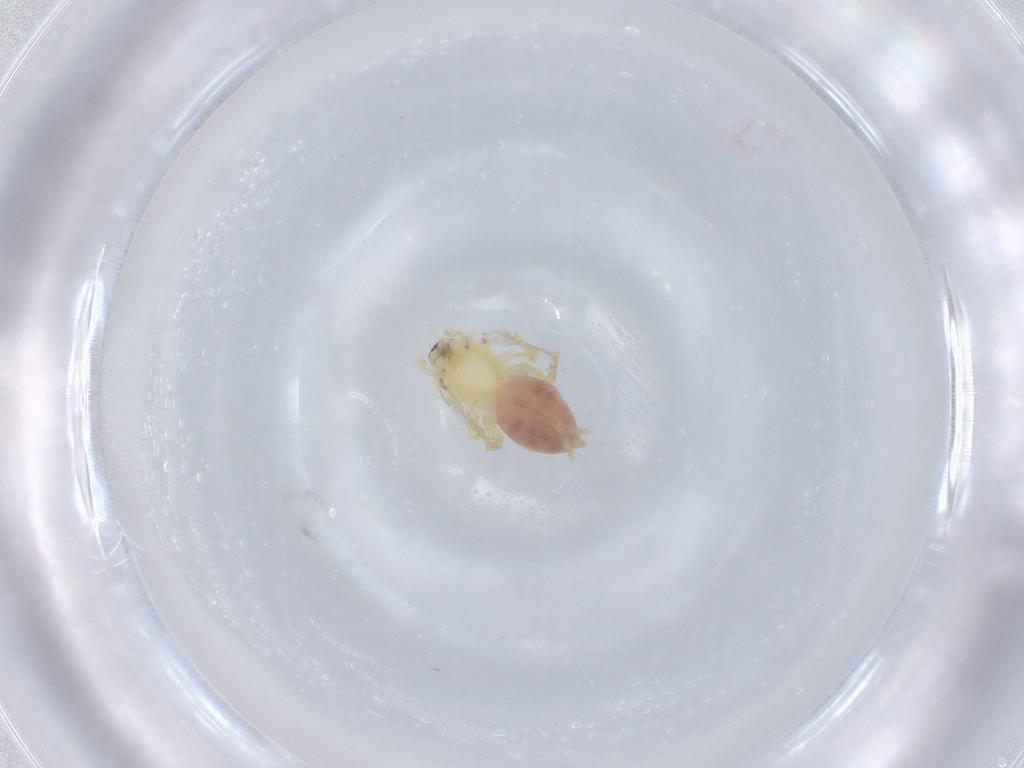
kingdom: Animalia
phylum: Arthropoda
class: Arachnida
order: Araneae
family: Anyphaenidae
